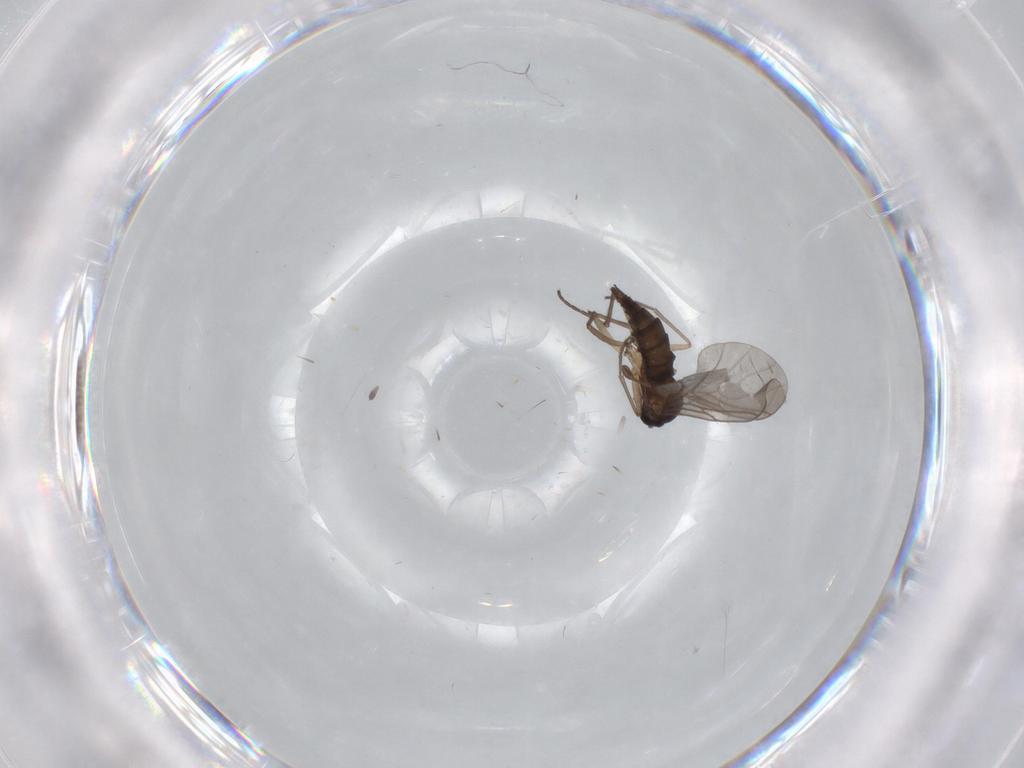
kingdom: Animalia
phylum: Arthropoda
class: Insecta
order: Diptera
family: Sciaridae
